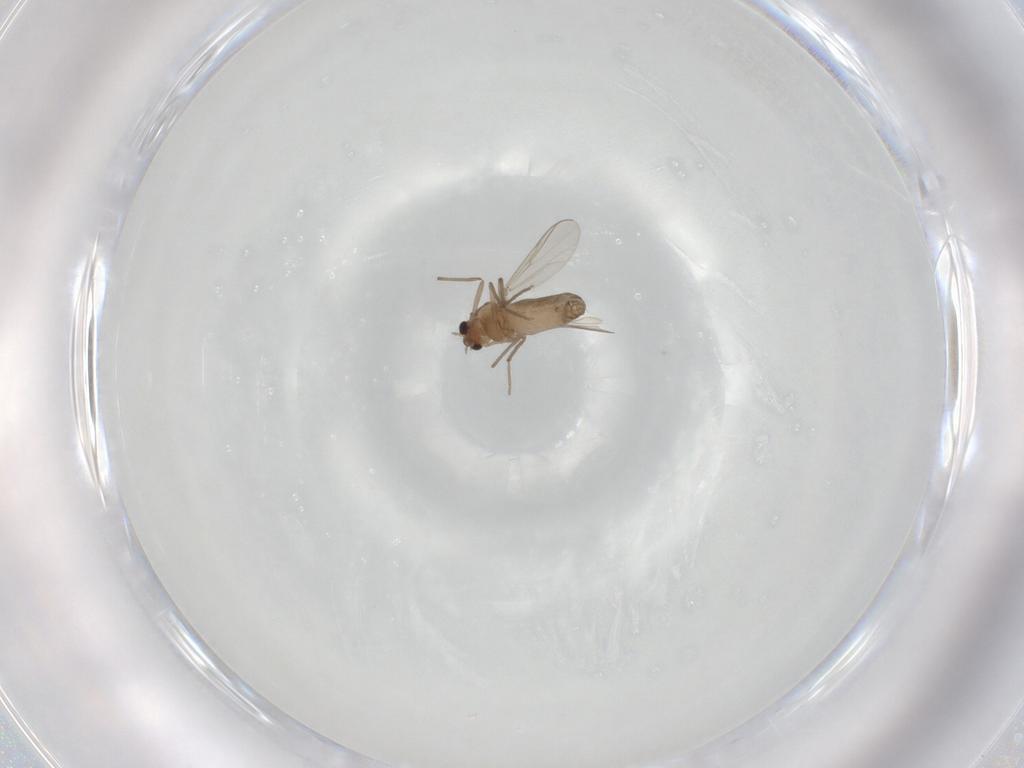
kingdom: Animalia
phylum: Arthropoda
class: Insecta
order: Diptera
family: Chironomidae
